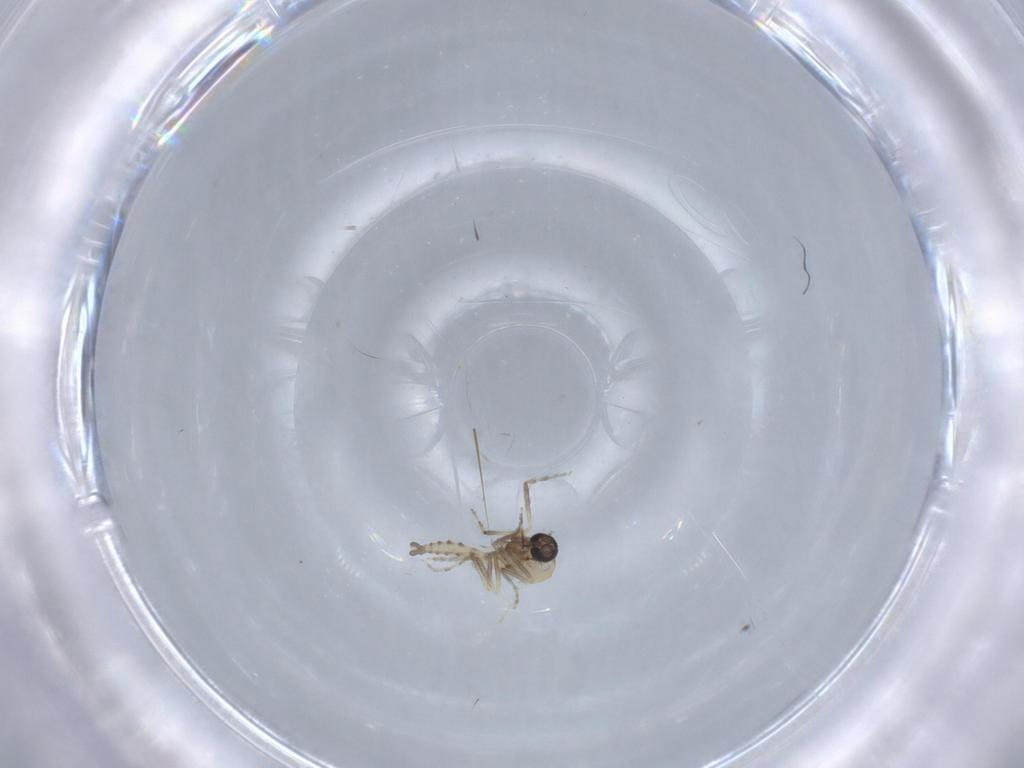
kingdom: Animalia
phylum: Arthropoda
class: Insecta
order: Diptera
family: Ceratopogonidae
